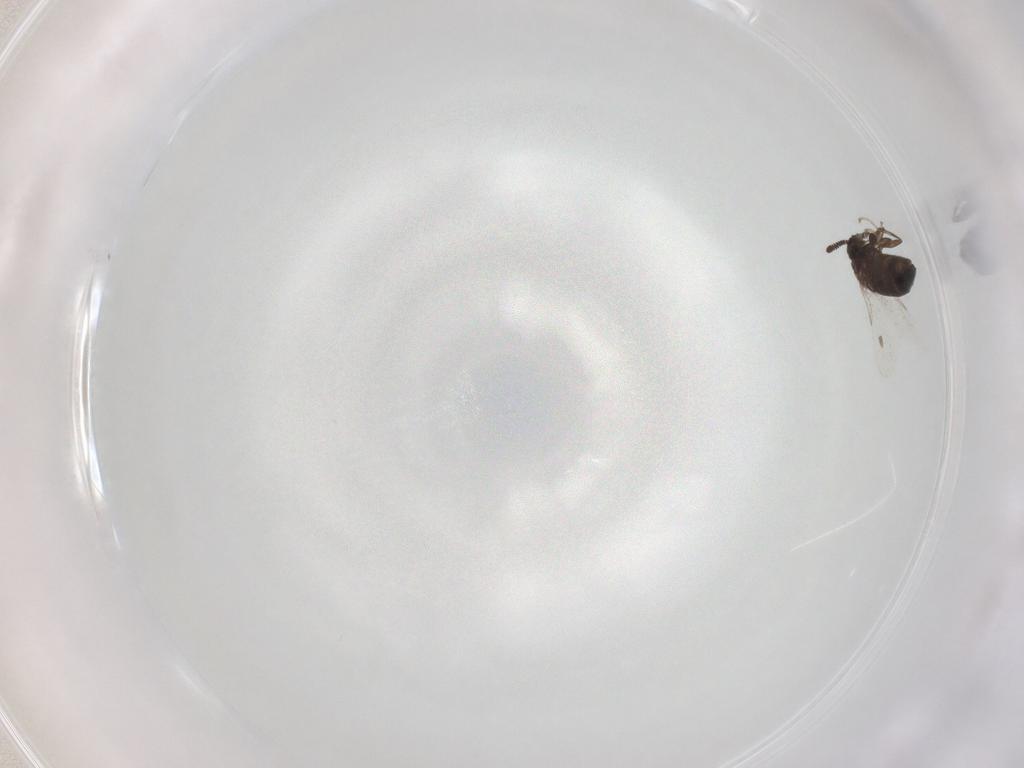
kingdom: Animalia
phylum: Arthropoda
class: Insecta
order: Diptera
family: Scatopsidae
